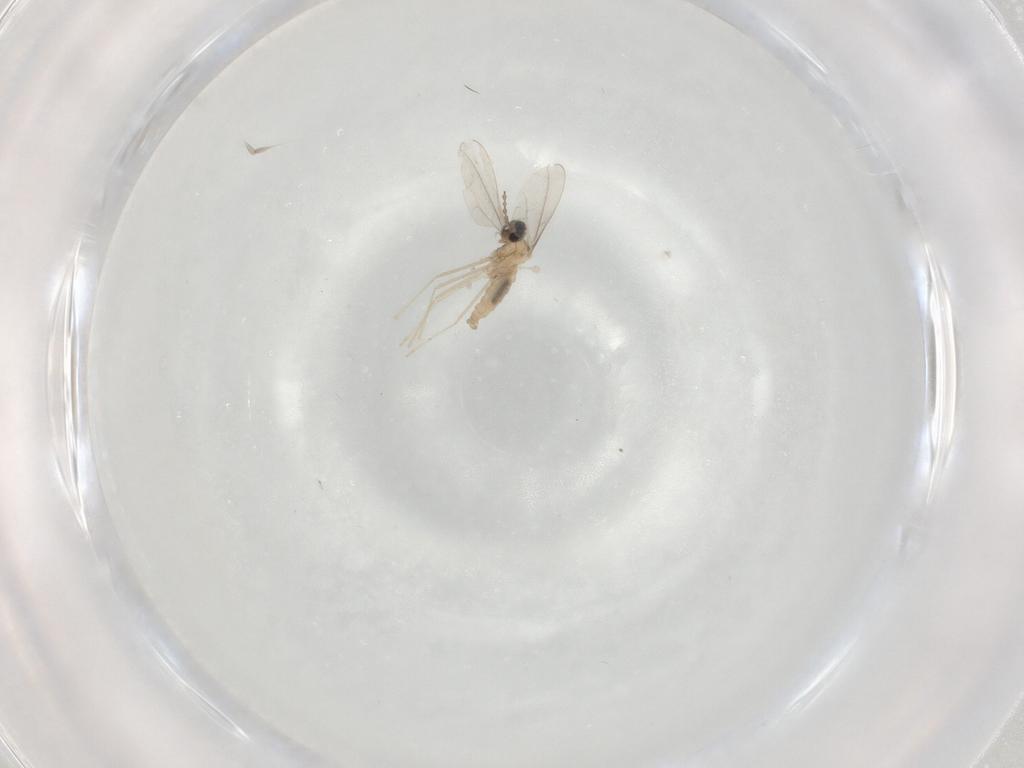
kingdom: Animalia
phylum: Arthropoda
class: Insecta
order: Diptera
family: Cecidomyiidae
